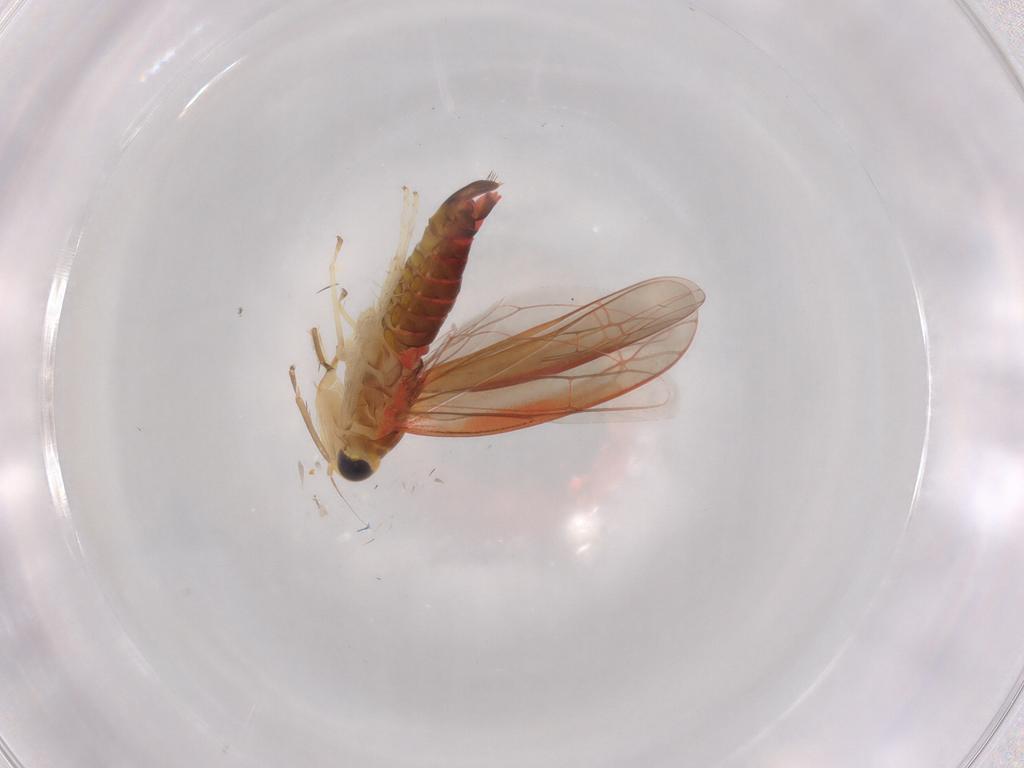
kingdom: Animalia
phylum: Arthropoda
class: Insecta
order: Hemiptera
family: Cicadellidae
